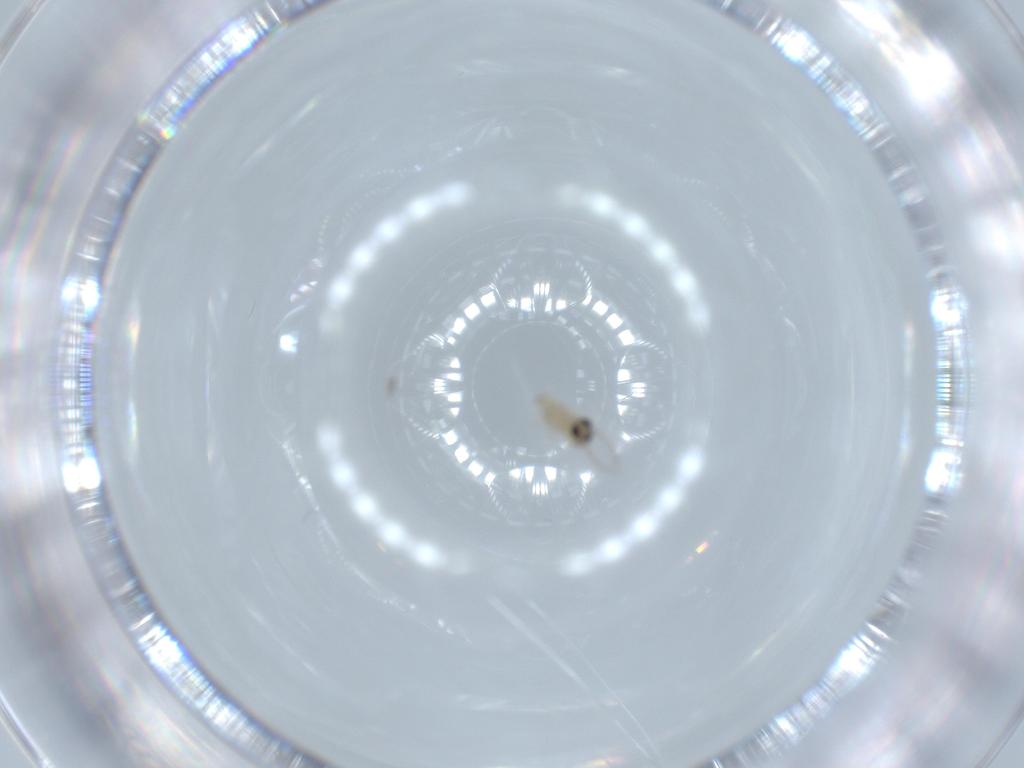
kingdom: Animalia
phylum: Arthropoda
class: Insecta
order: Diptera
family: Cecidomyiidae
